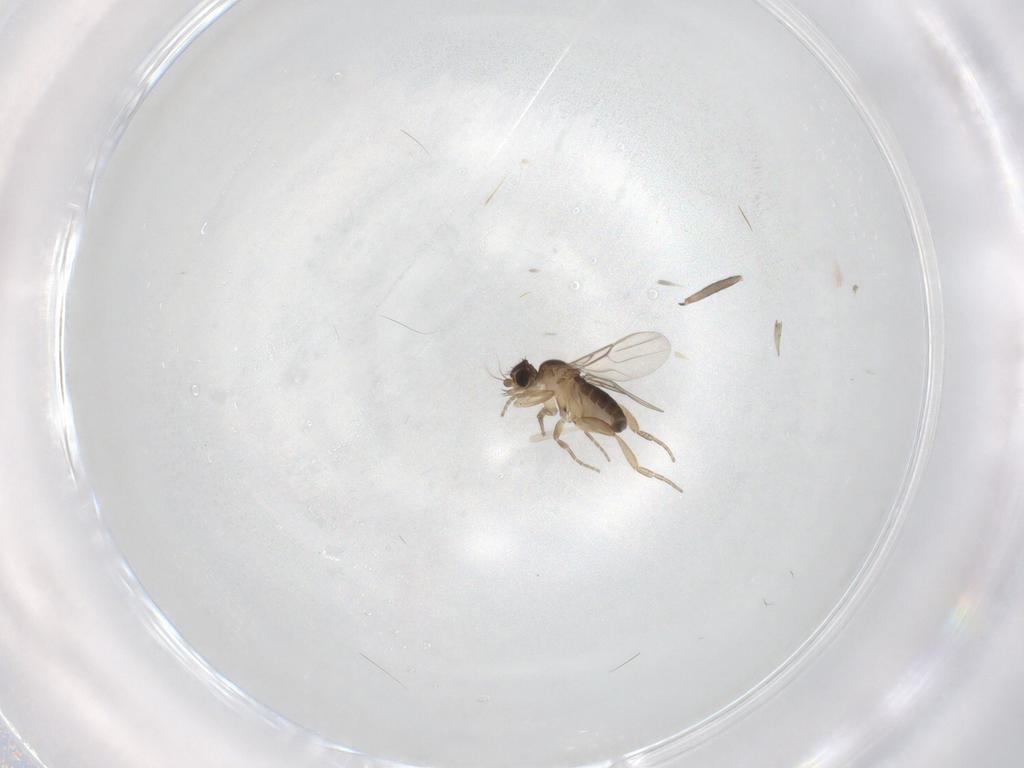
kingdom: Animalia
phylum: Arthropoda
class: Insecta
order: Diptera
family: Phoridae
